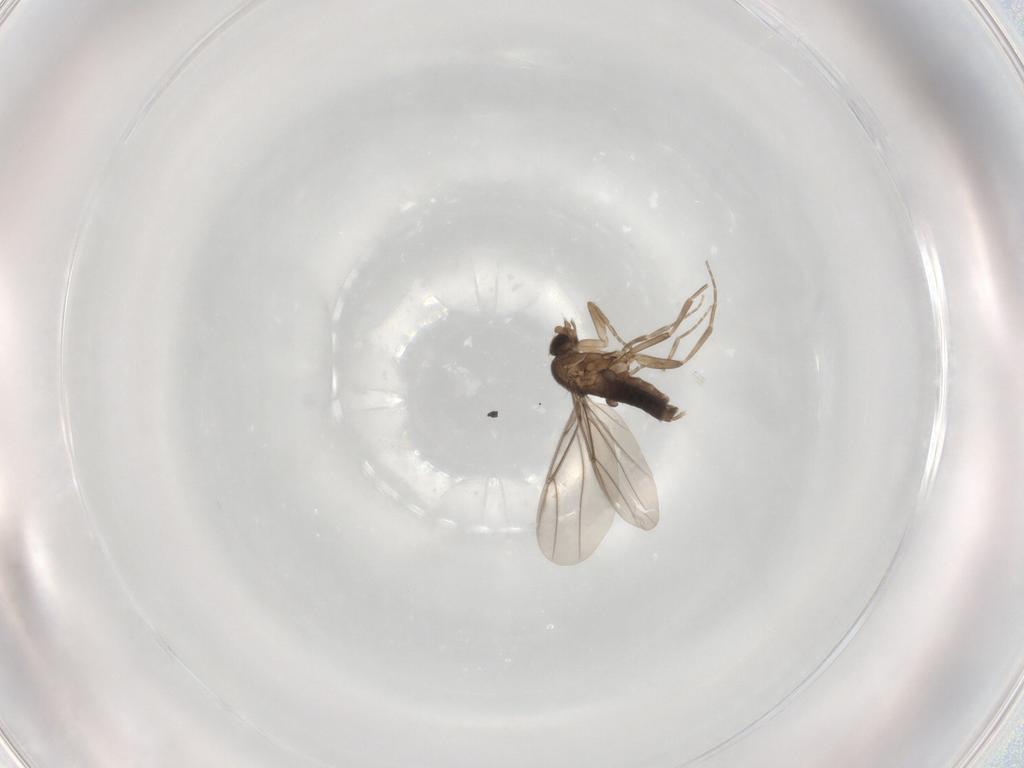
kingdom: Animalia
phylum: Arthropoda
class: Insecta
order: Diptera
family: Phoridae
